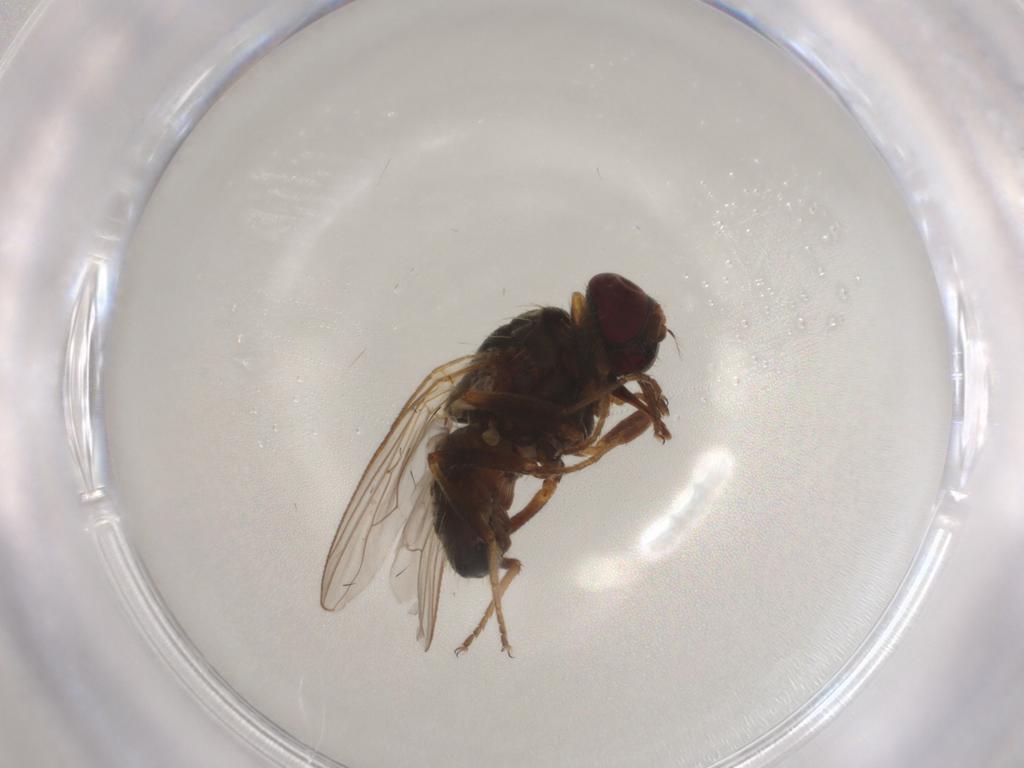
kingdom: Animalia
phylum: Arthropoda
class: Insecta
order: Diptera
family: Muscidae
